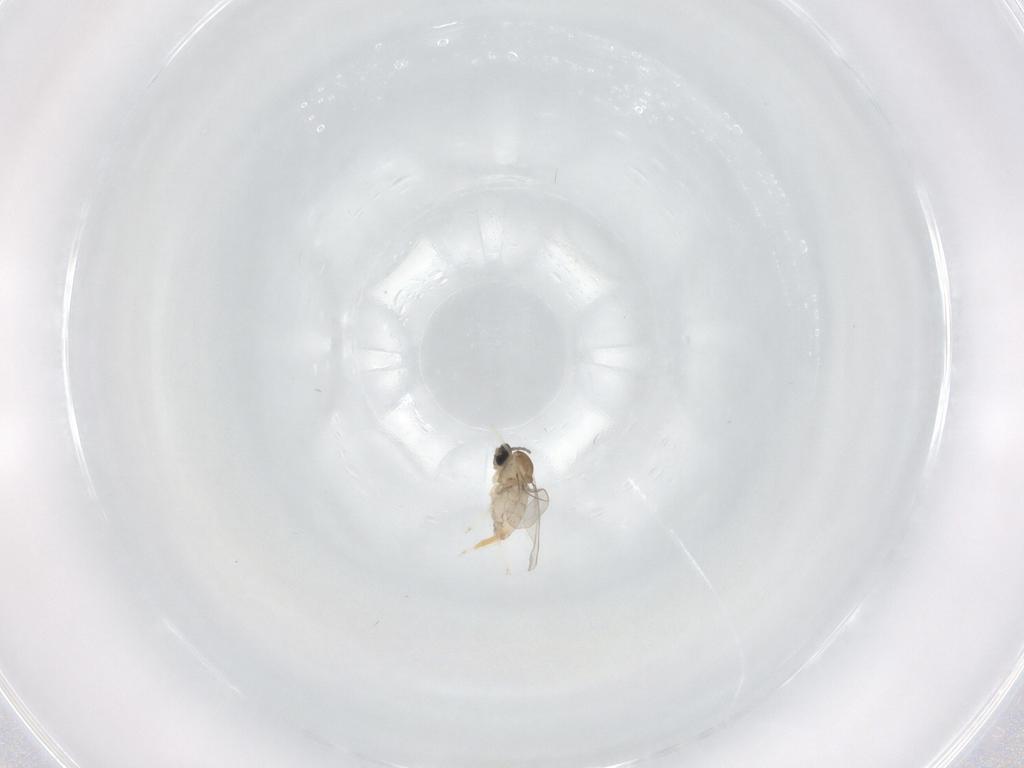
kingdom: Animalia
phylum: Arthropoda
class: Insecta
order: Diptera
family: Cecidomyiidae
